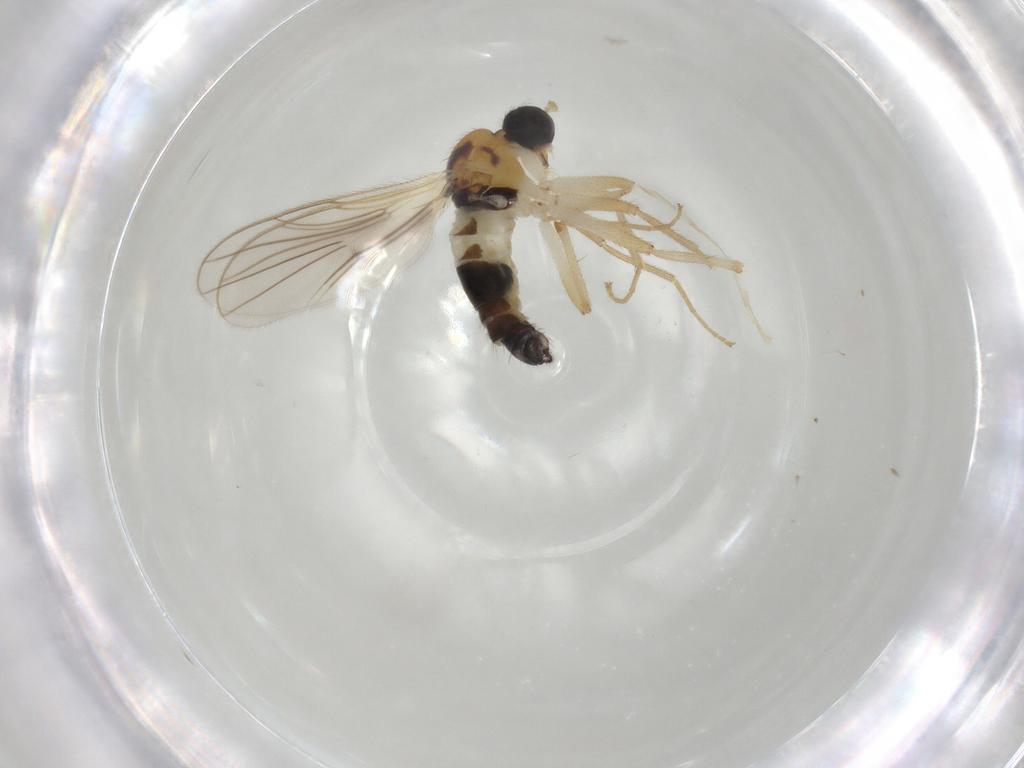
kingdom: Animalia
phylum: Arthropoda
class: Insecta
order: Diptera
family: Hybotidae
